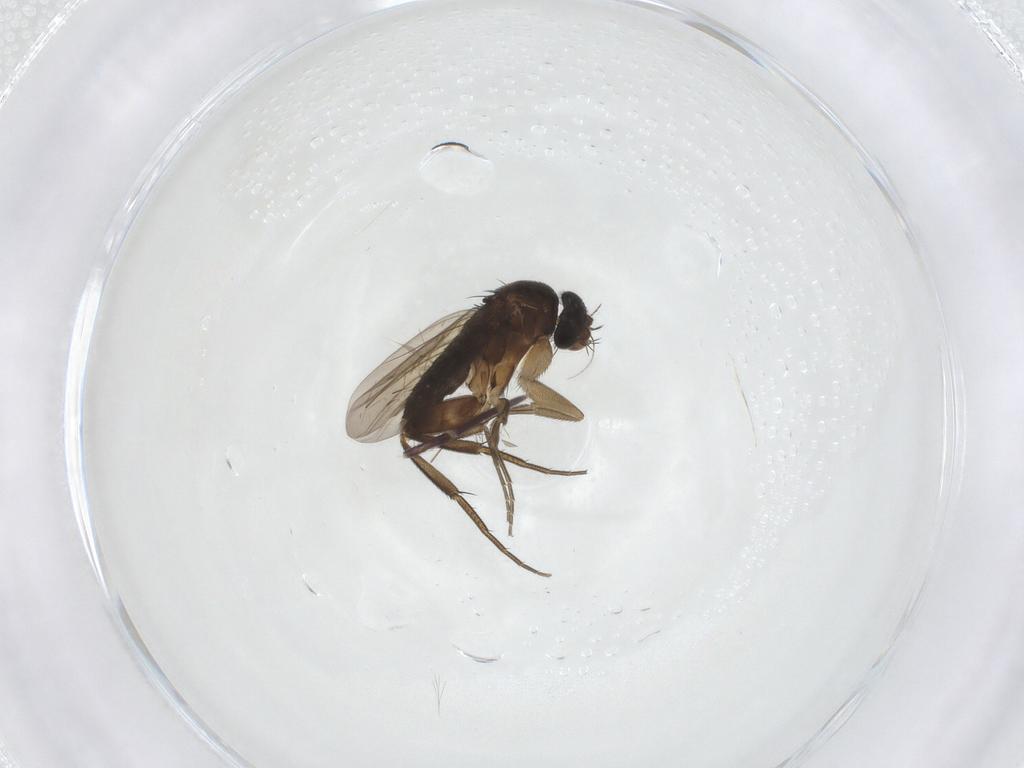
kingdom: Animalia
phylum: Arthropoda
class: Insecta
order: Diptera
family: Phoridae
